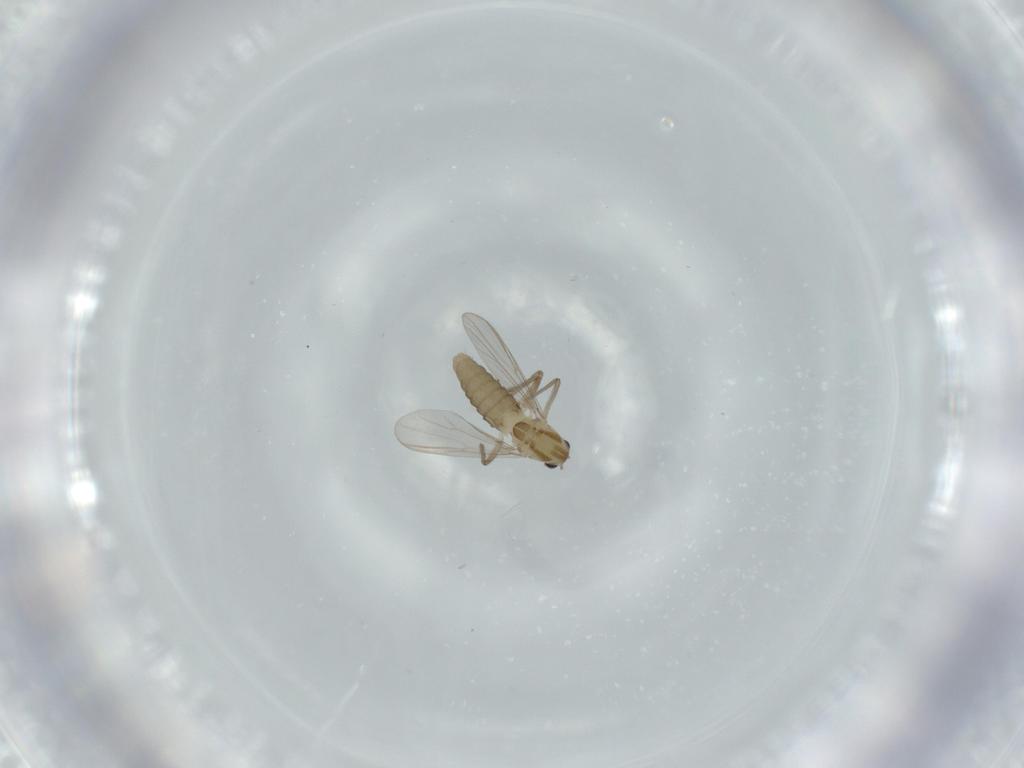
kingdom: Animalia
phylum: Arthropoda
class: Insecta
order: Diptera
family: Chironomidae
